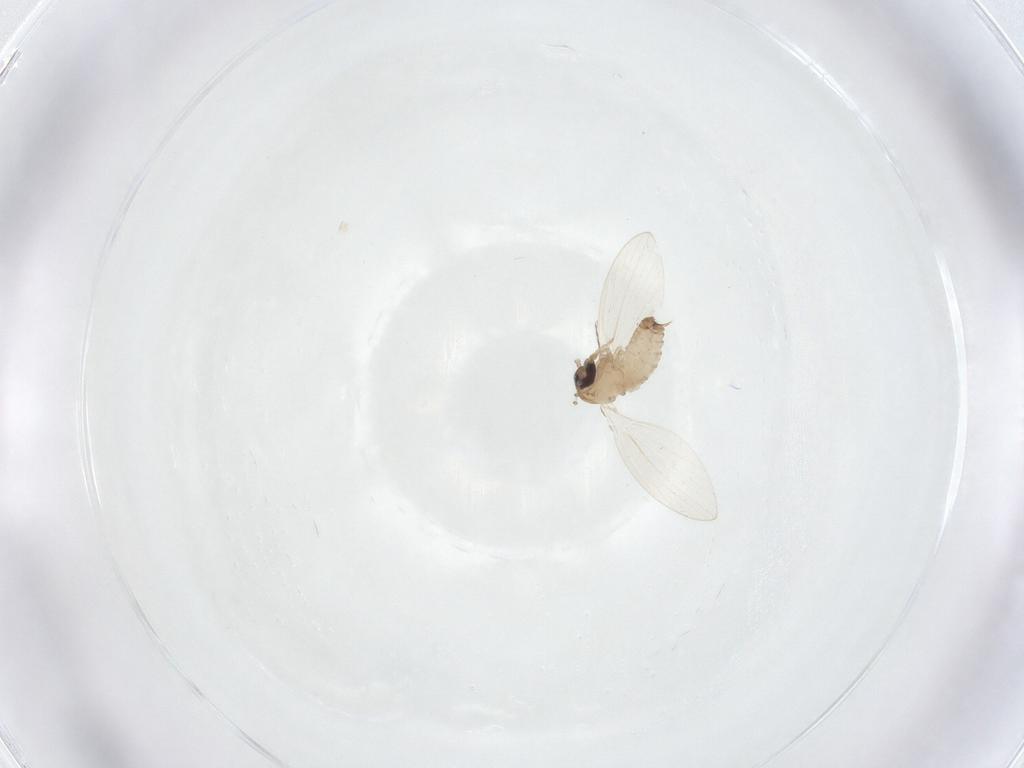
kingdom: Animalia
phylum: Arthropoda
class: Insecta
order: Diptera
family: Psychodidae
